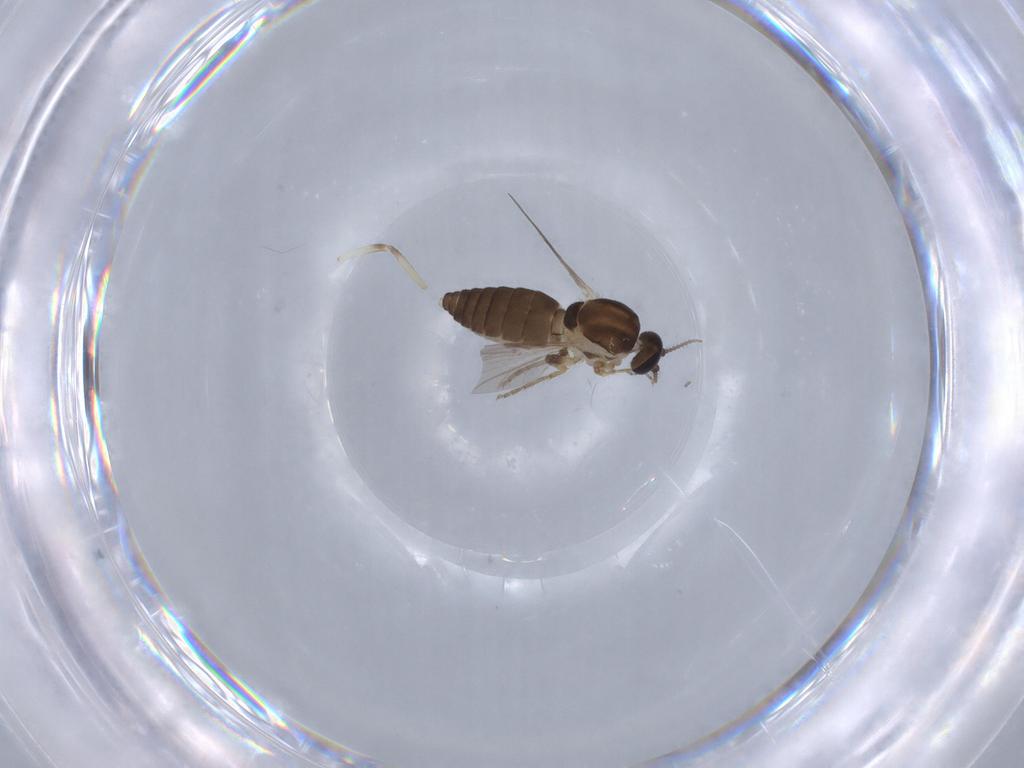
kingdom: Animalia
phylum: Arthropoda
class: Insecta
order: Diptera
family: Ceratopogonidae
